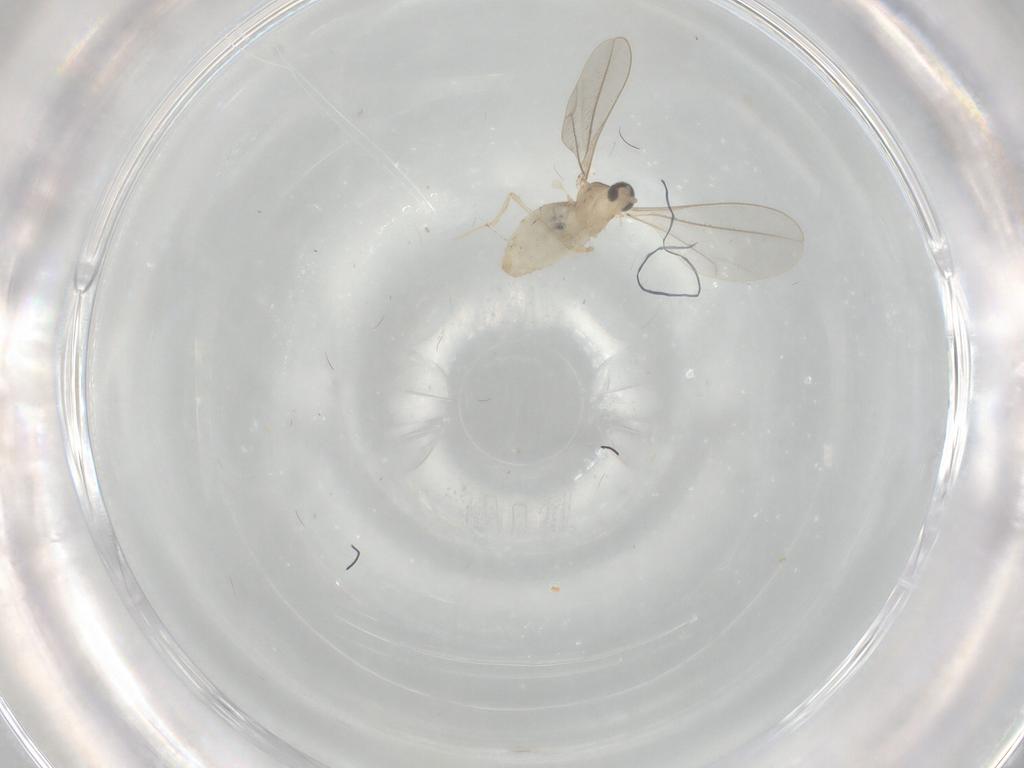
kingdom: Animalia
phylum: Arthropoda
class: Insecta
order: Diptera
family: Cecidomyiidae
